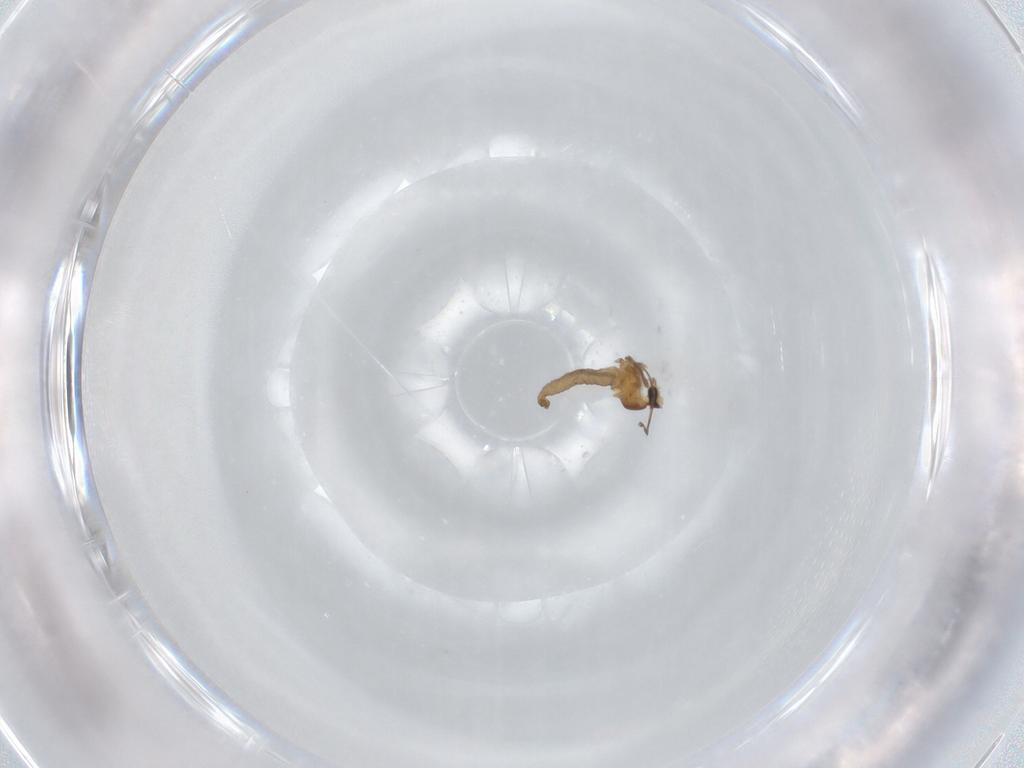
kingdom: Animalia
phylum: Arthropoda
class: Insecta
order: Diptera
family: Cecidomyiidae
